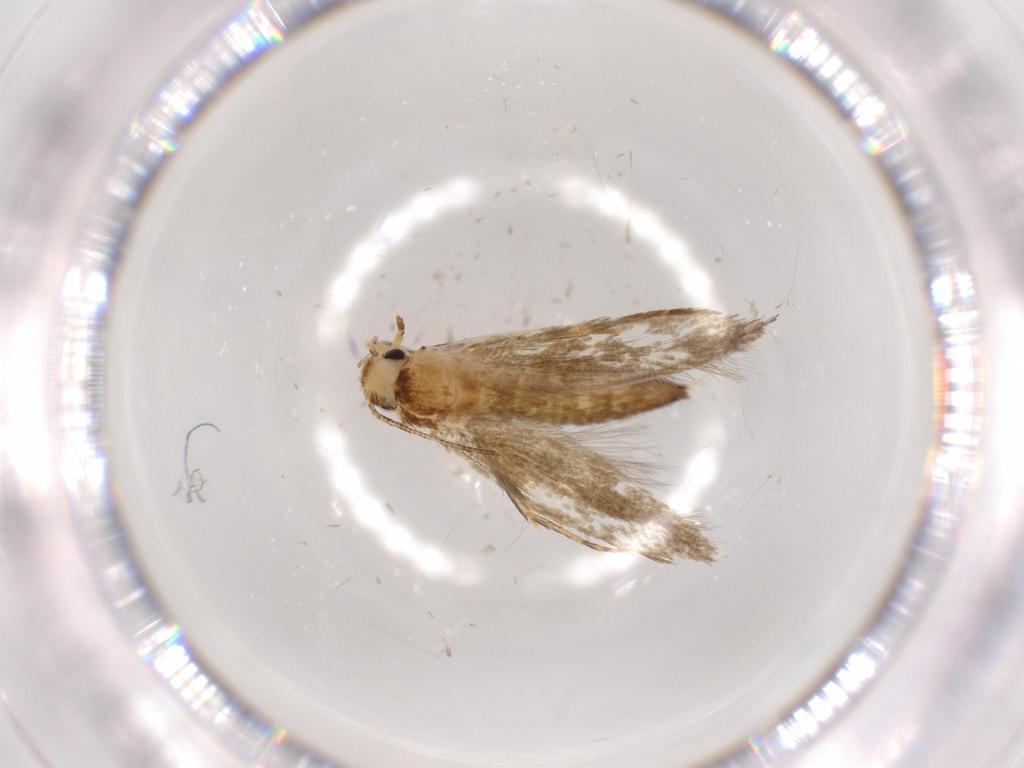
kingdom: Animalia
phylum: Arthropoda
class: Insecta
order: Lepidoptera
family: Tineidae
